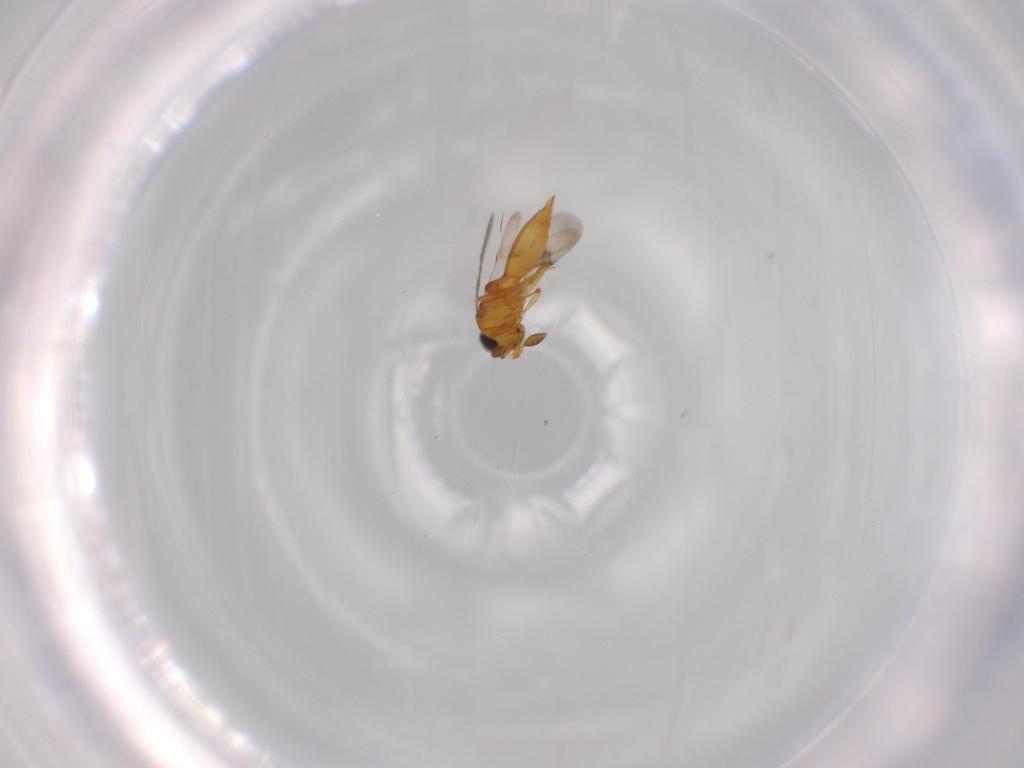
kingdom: Animalia
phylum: Arthropoda
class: Insecta
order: Hymenoptera
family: Scelionidae
